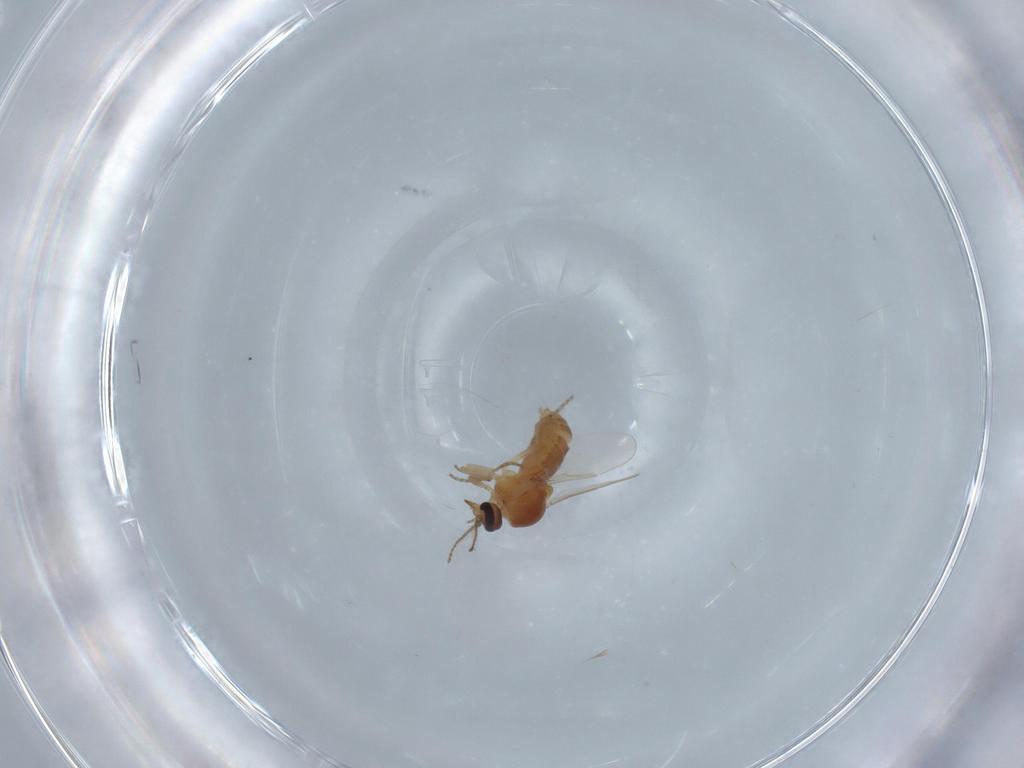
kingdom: Animalia
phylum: Arthropoda
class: Insecta
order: Diptera
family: Ceratopogonidae
